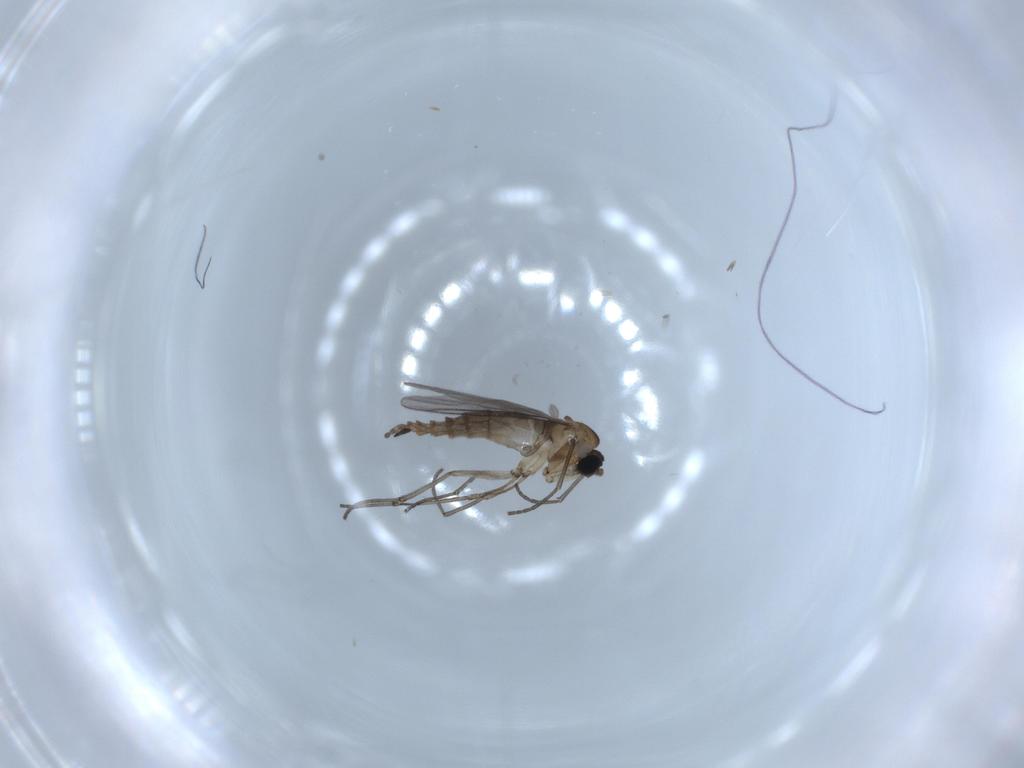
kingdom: Animalia
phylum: Arthropoda
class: Insecta
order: Diptera
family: Sciaridae
